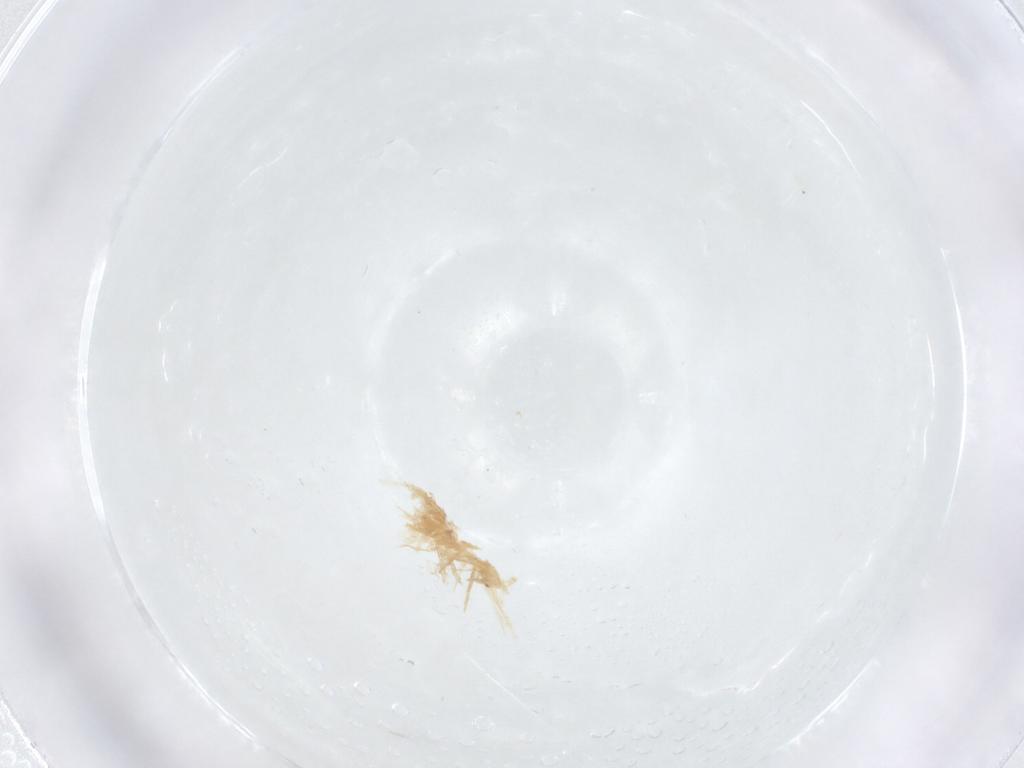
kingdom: Animalia
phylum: Arthropoda
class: Insecta
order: Diptera
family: Cecidomyiidae
